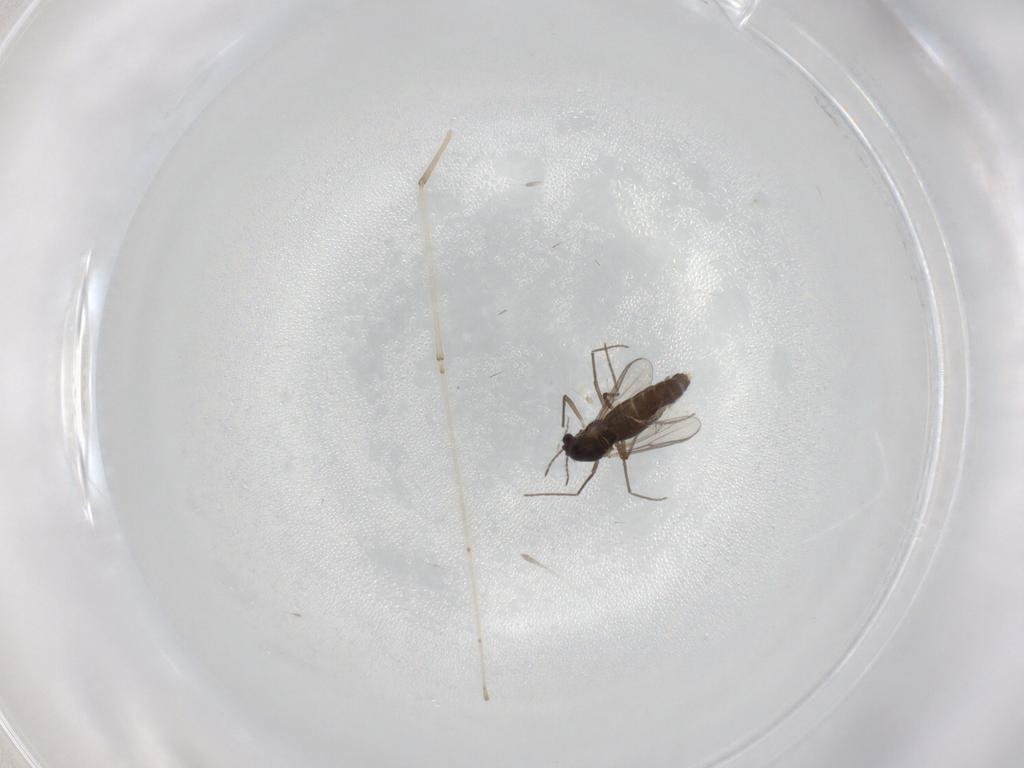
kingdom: Animalia
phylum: Arthropoda
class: Insecta
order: Diptera
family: Chironomidae
